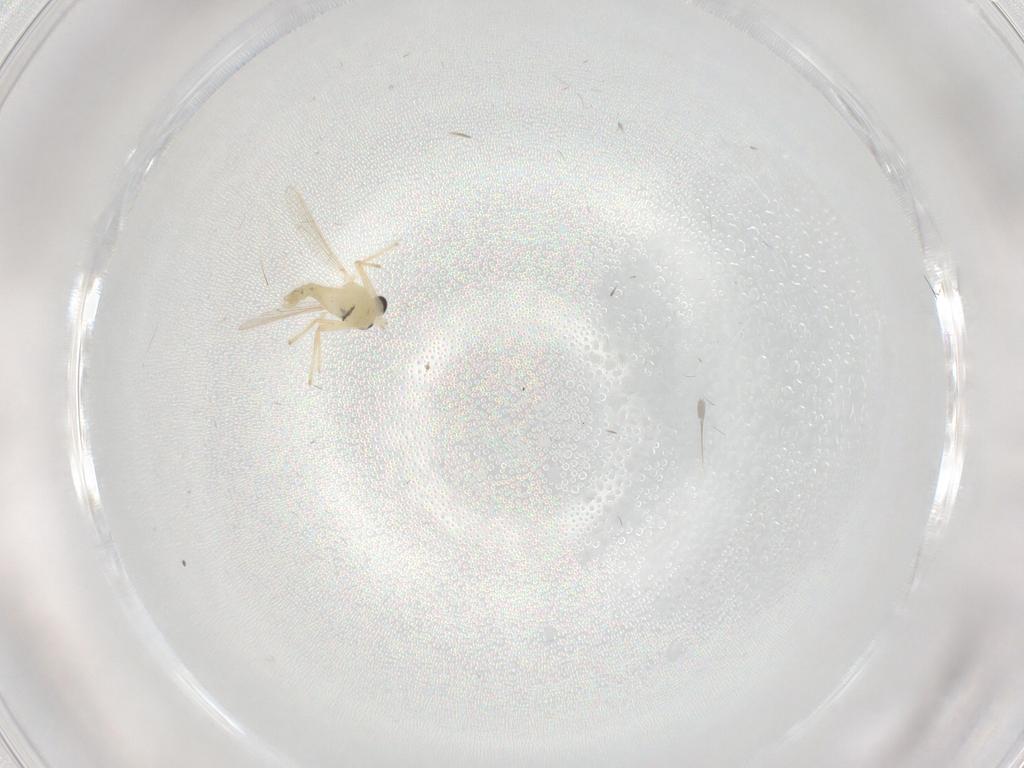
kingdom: Animalia
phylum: Arthropoda
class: Insecta
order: Diptera
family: Chironomidae
